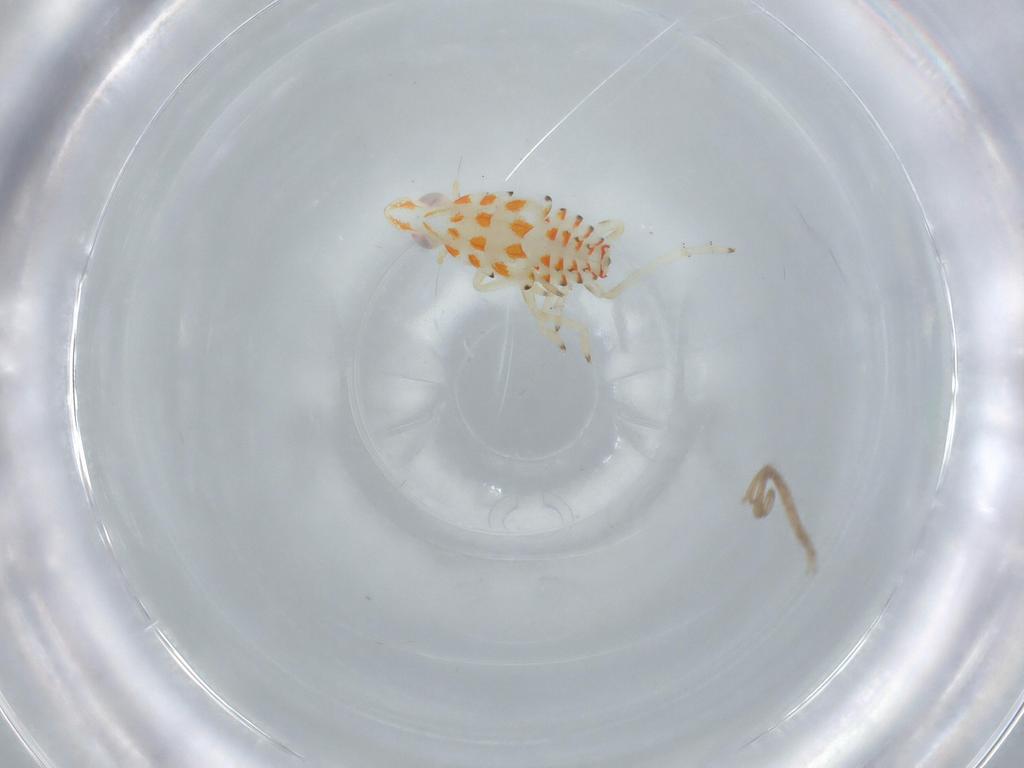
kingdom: Animalia
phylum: Arthropoda
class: Insecta
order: Hemiptera
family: Tropiduchidae
